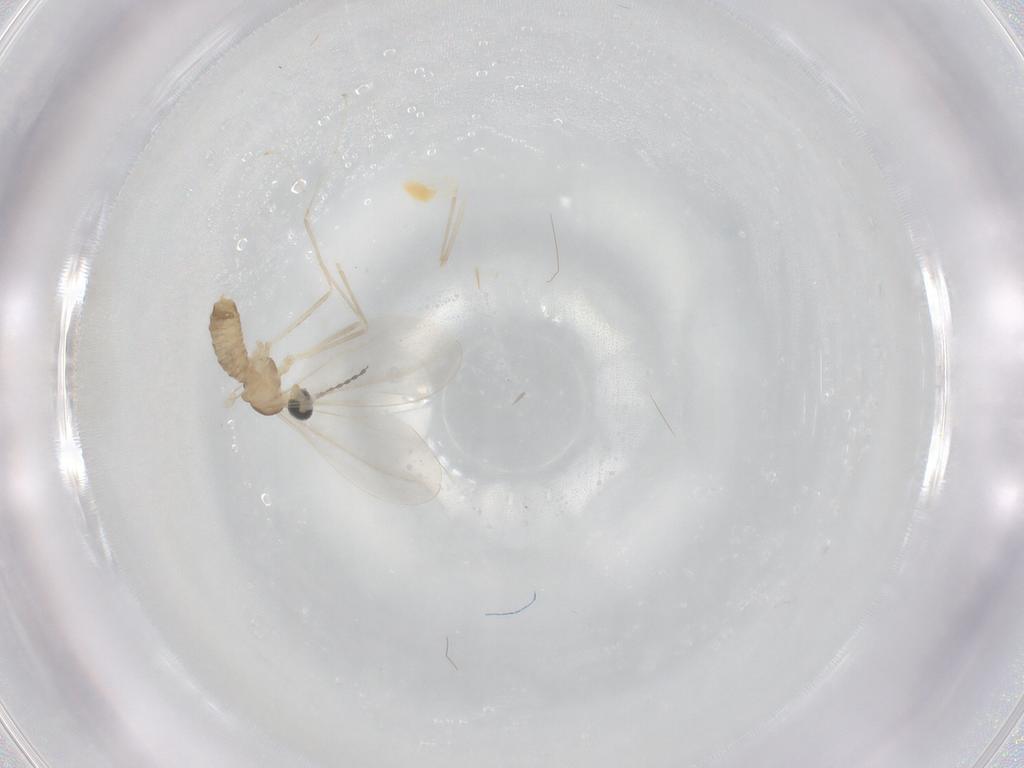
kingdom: Animalia
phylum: Arthropoda
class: Insecta
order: Diptera
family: Cecidomyiidae
